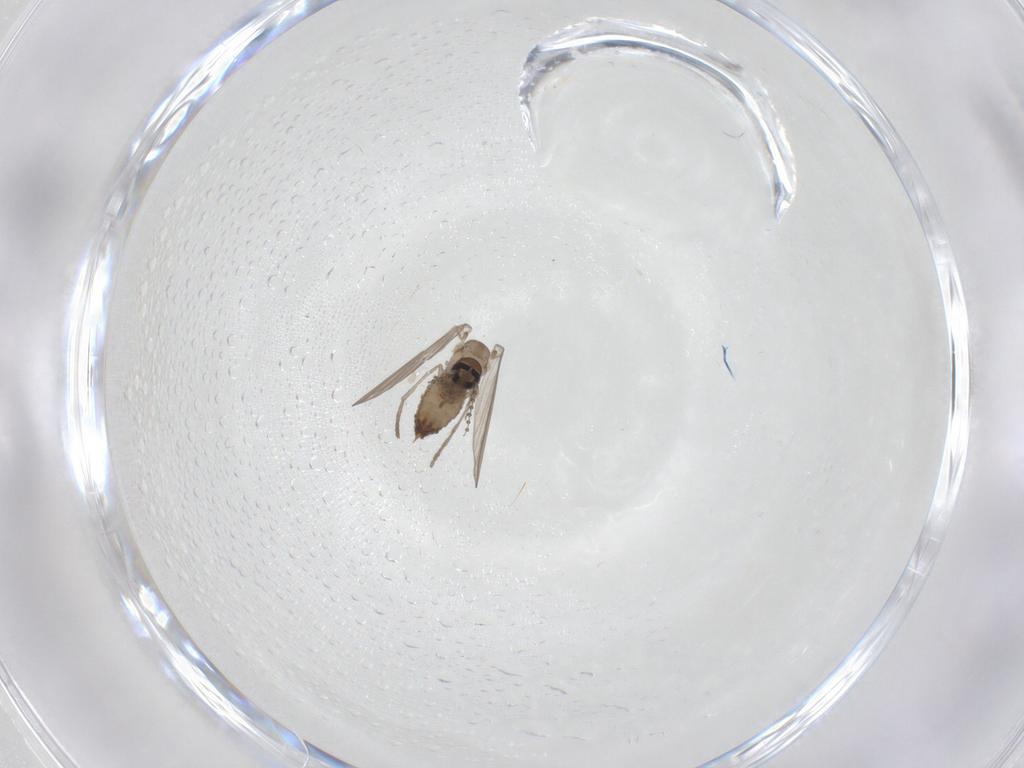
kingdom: Animalia
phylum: Arthropoda
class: Insecta
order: Diptera
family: Psychodidae
